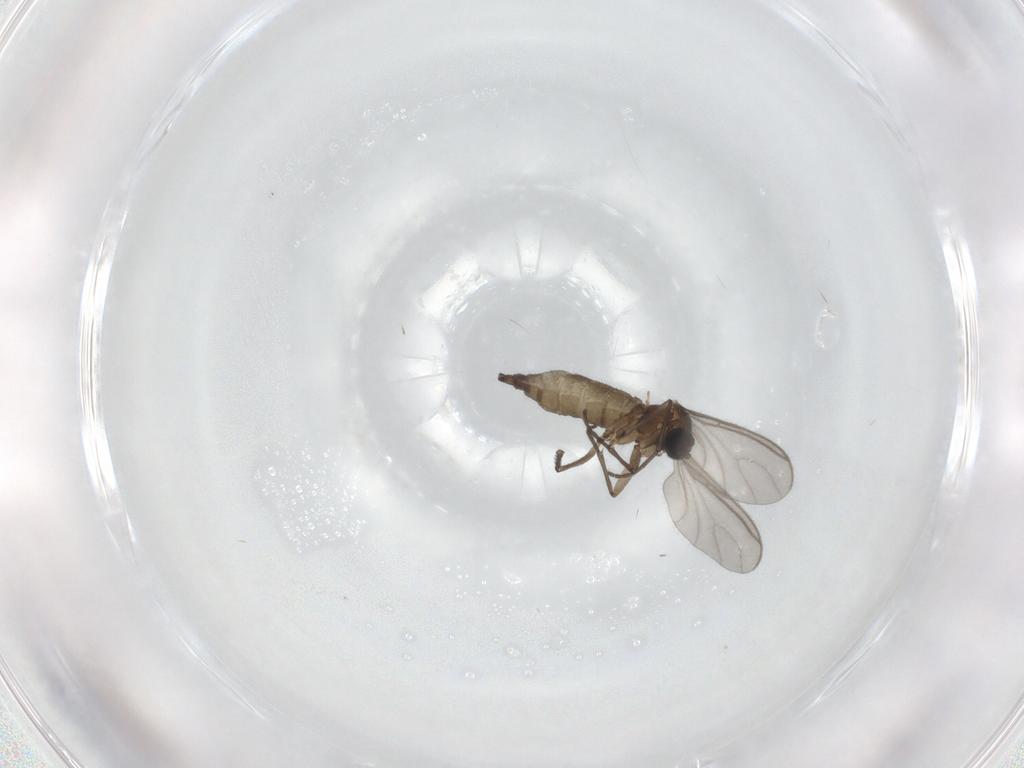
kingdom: Animalia
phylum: Arthropoda
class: Insecta
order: Diptera
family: Sciaridae
